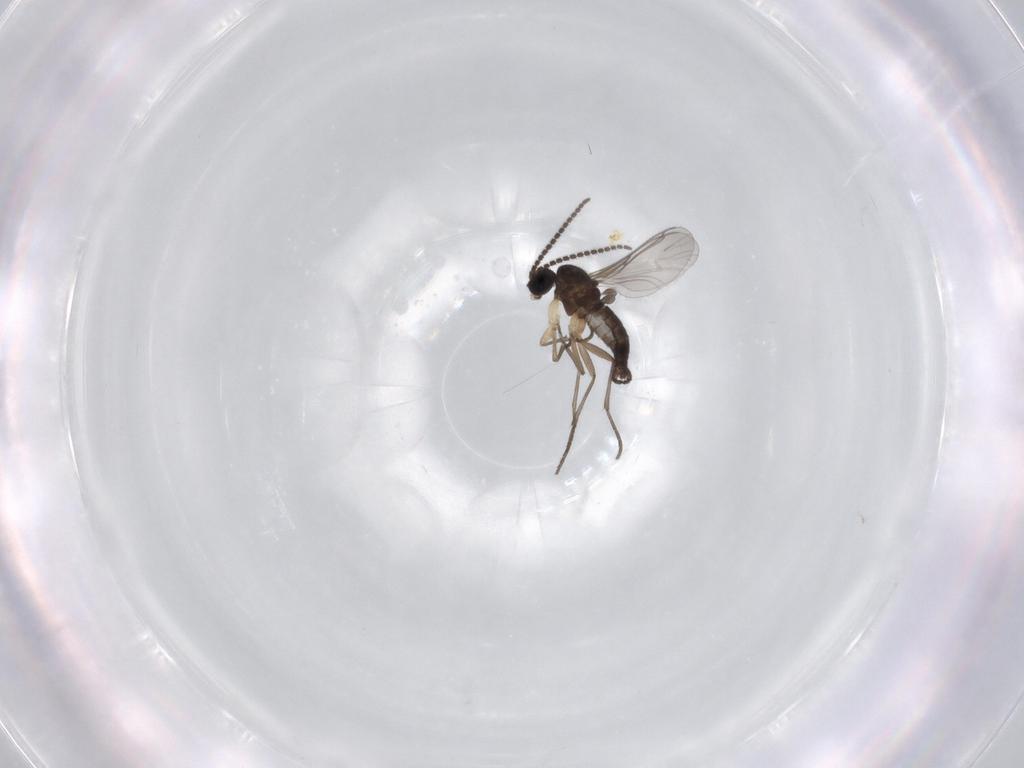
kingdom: Animalia
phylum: Arthropoda
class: Insecta
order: Diptera
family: Sciaridae
